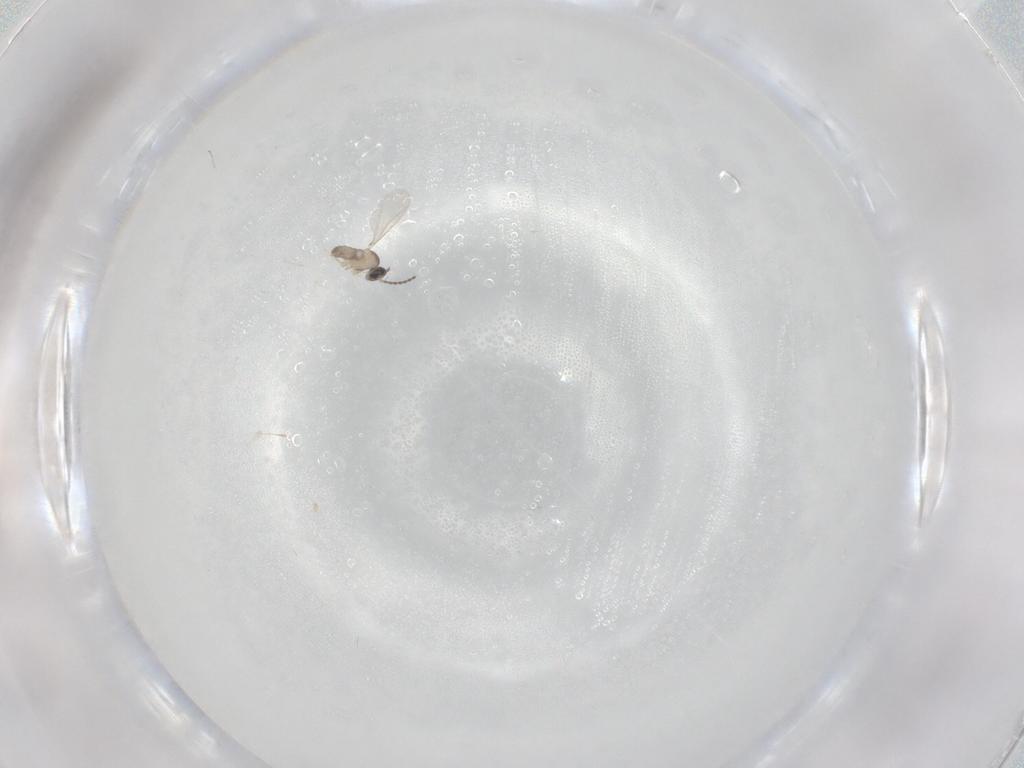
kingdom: Animalia
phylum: Arthropoda
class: Insecta
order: Diptera
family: Cecidomyiidae
